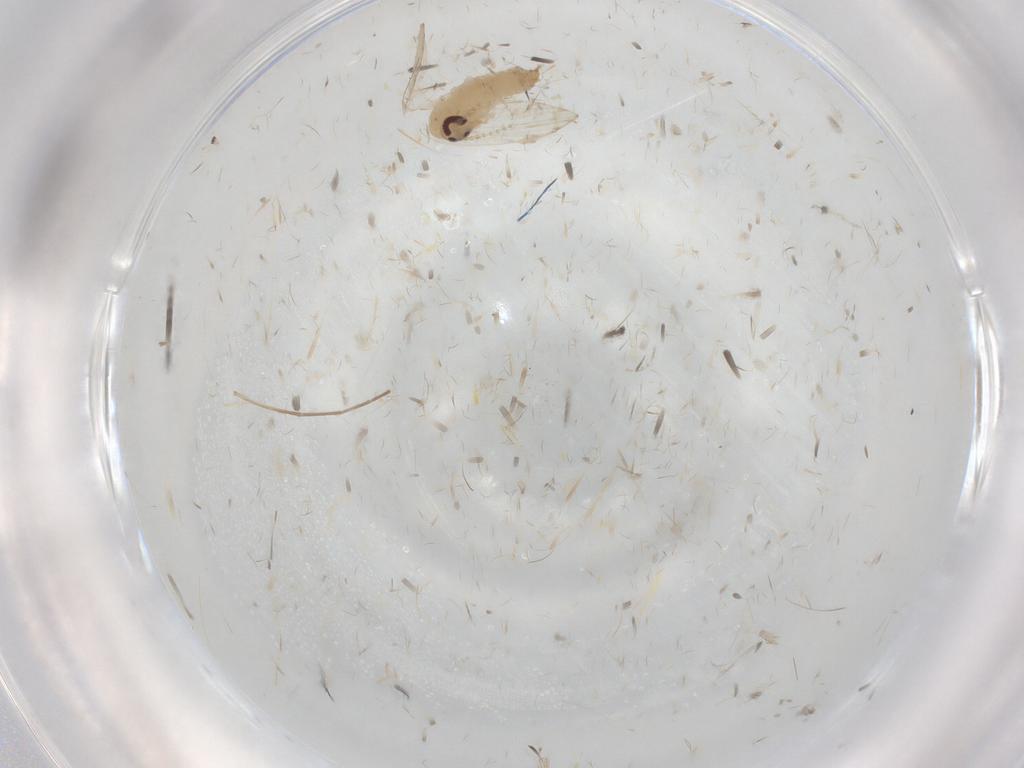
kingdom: Animalia
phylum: Arthropoda
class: Insecta
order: Diptera
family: Psychodidae
